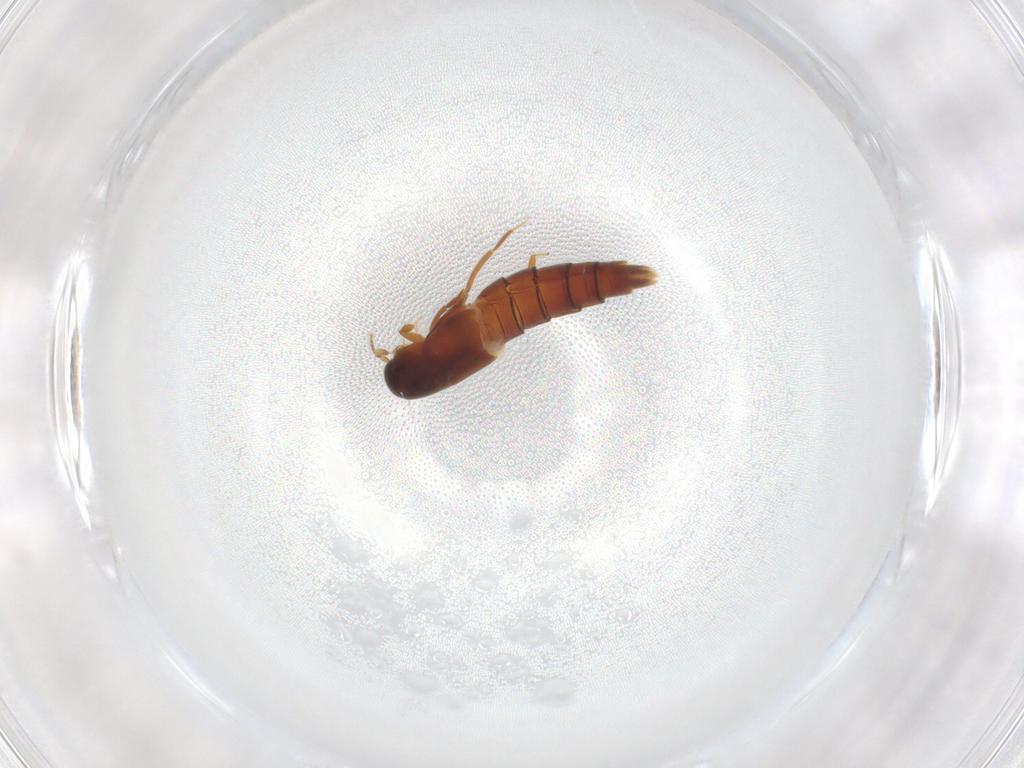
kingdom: Animalia
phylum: Arthropoda
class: Insecta
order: Coleoptera
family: Staphylinidae
